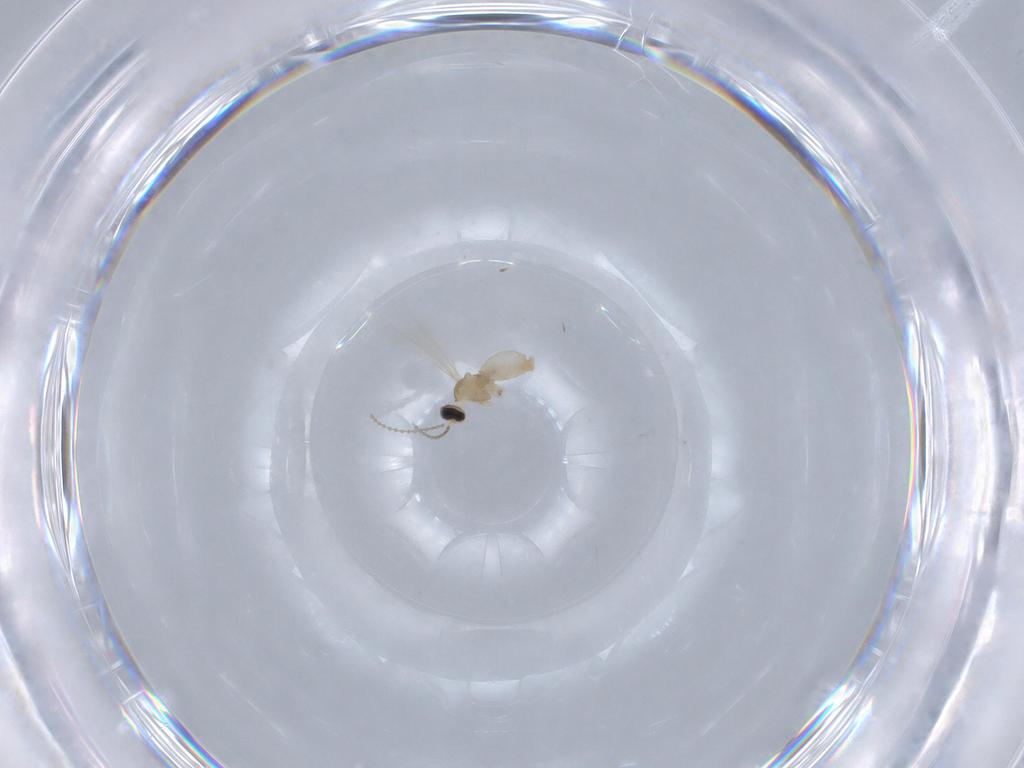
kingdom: Animalia
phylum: Arthropoda
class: Insecta
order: Diptera
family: Cecidomyiidae
